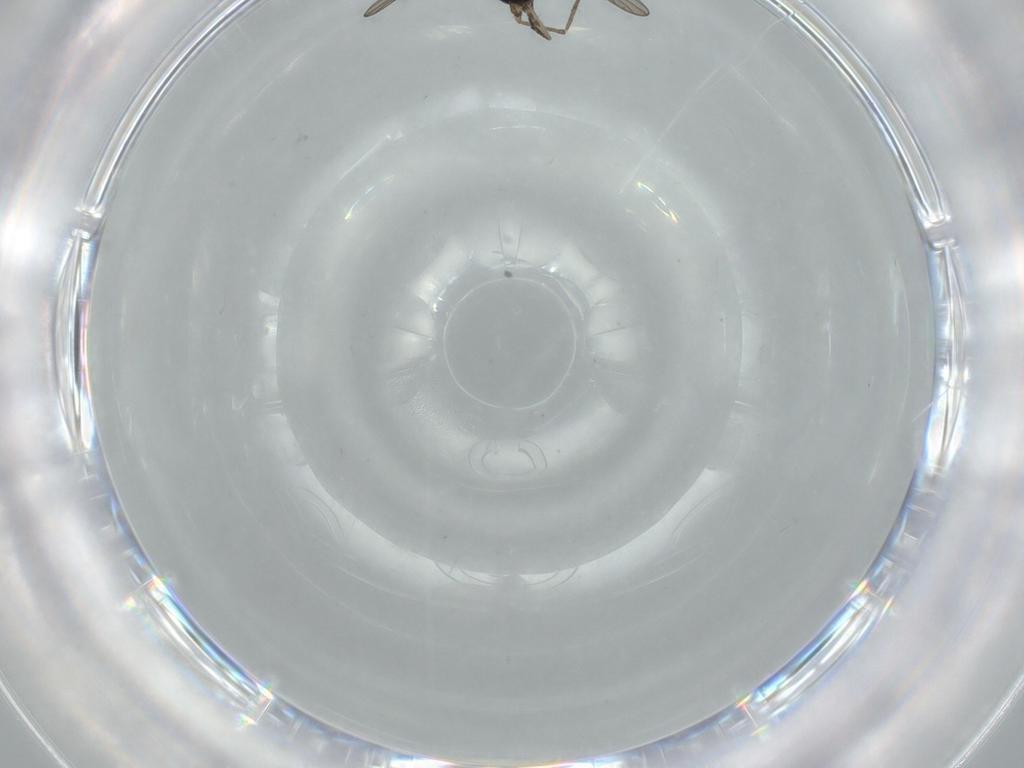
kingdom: Animalia
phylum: Arthropoda
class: Insecta
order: Diptera
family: Psychodidae
